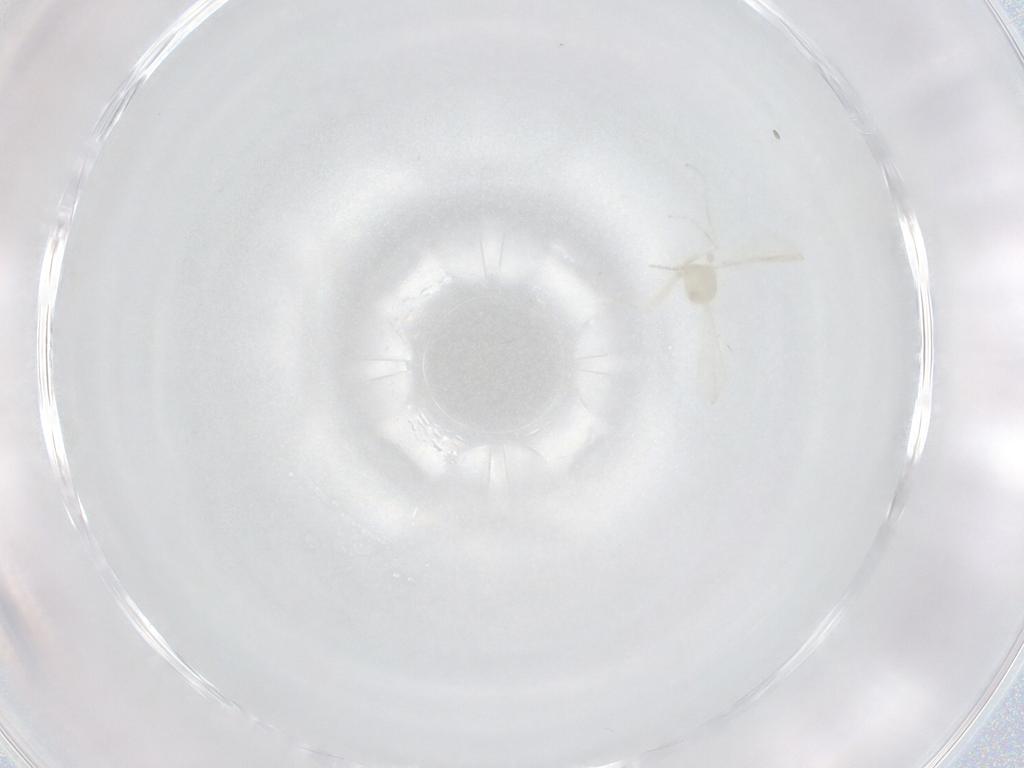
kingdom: Animalia
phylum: Arthropoda
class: Insecta
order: Diptera
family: Cecidomyiidae
